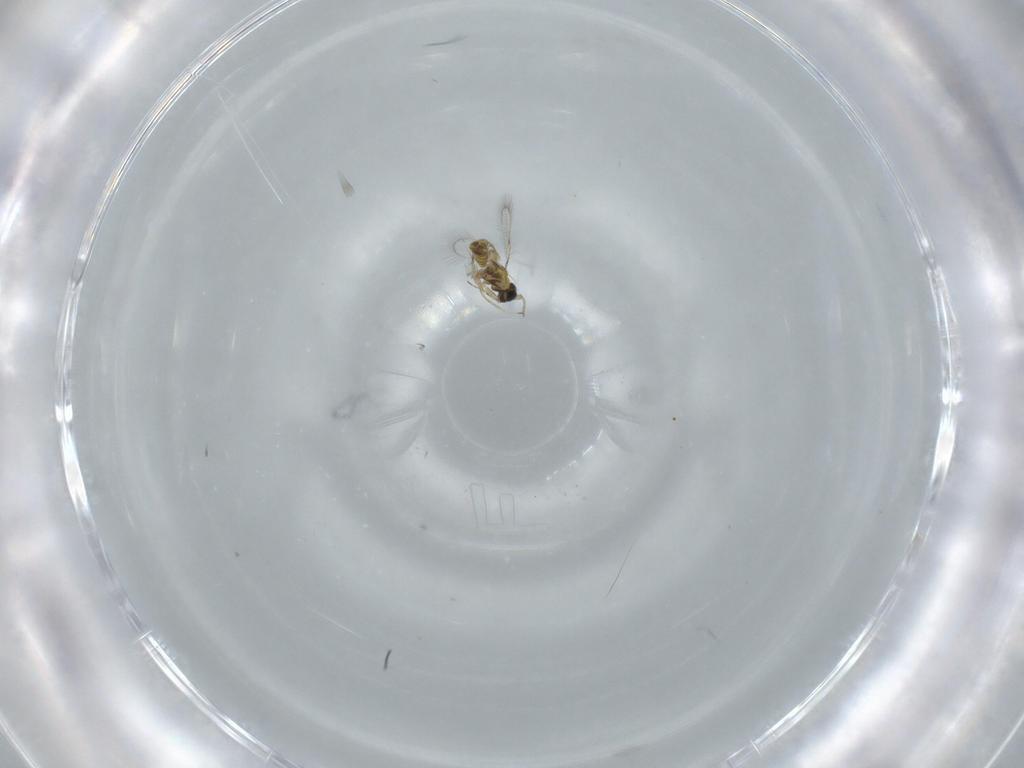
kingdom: Animalia
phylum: Arthropoda
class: Insecta
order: Hymenoptera
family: Trichogrammatidae
